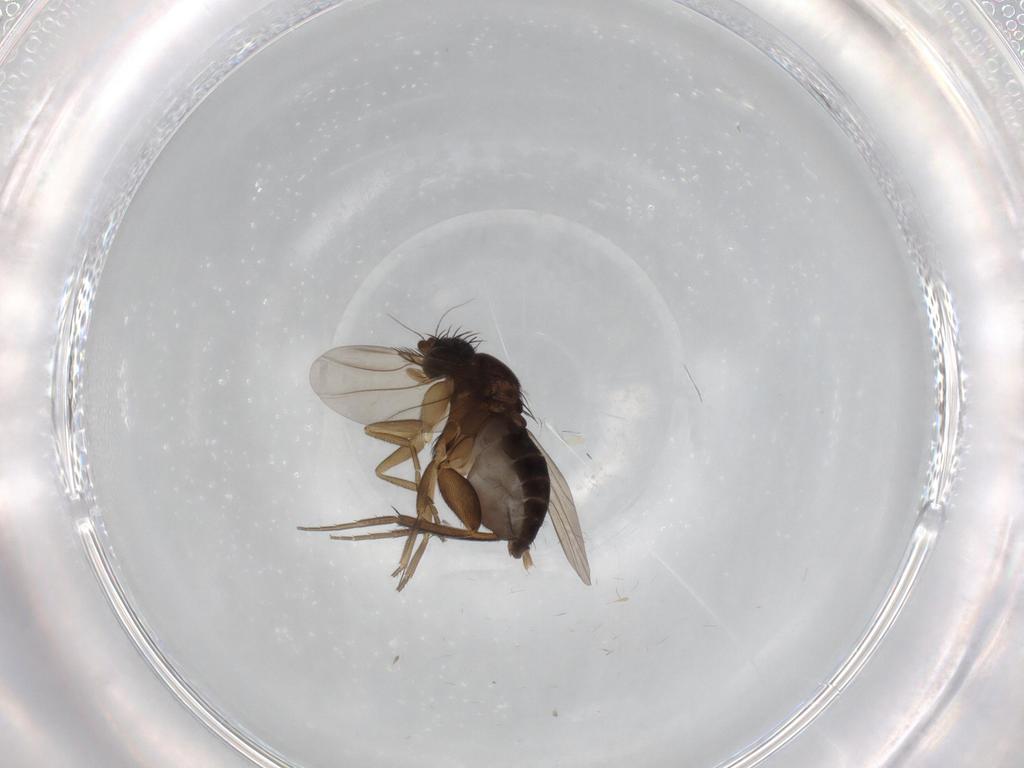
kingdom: Animalia
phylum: Arthropoda
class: Insecta
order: Diptera
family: Phoridae
